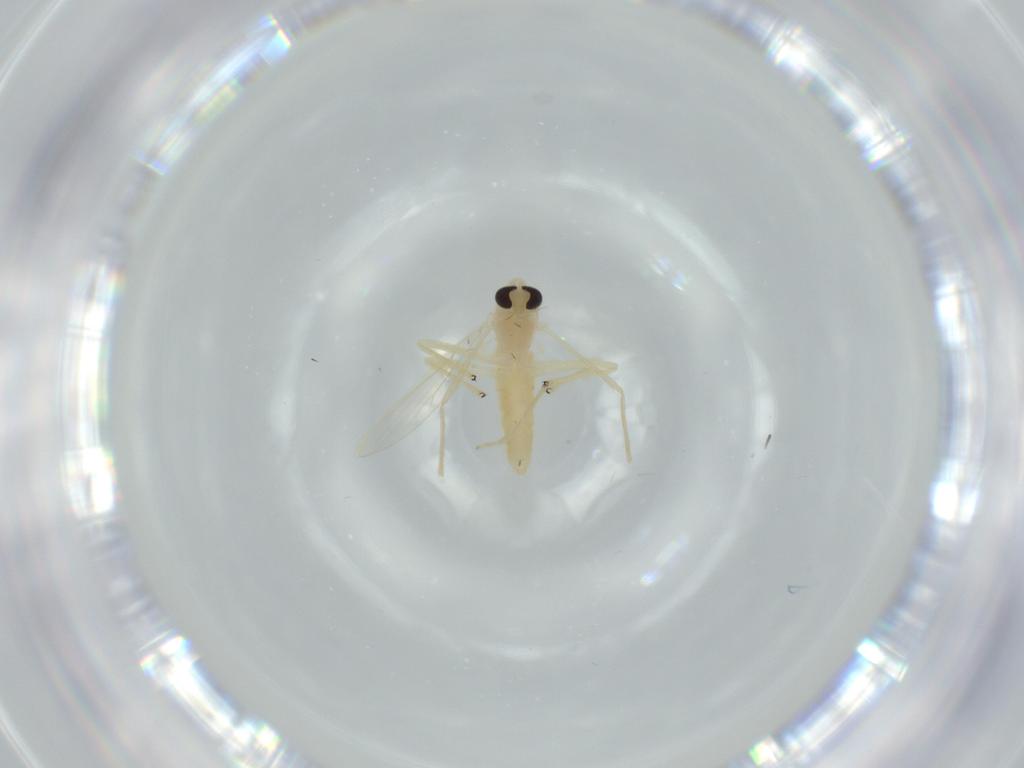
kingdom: Animalia
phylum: Arthropoda
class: Insecta
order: Diptera
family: Chironomidae
